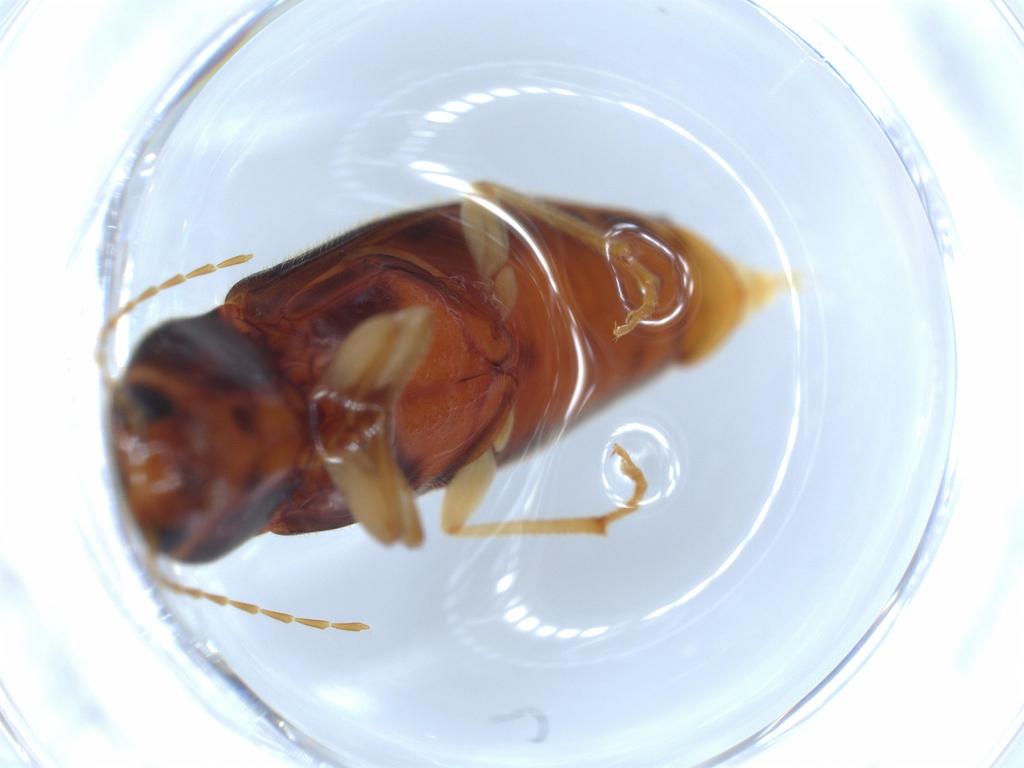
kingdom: Animalia
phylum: Arthropoda
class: Insecta
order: Coleoptera
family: Elateridae
